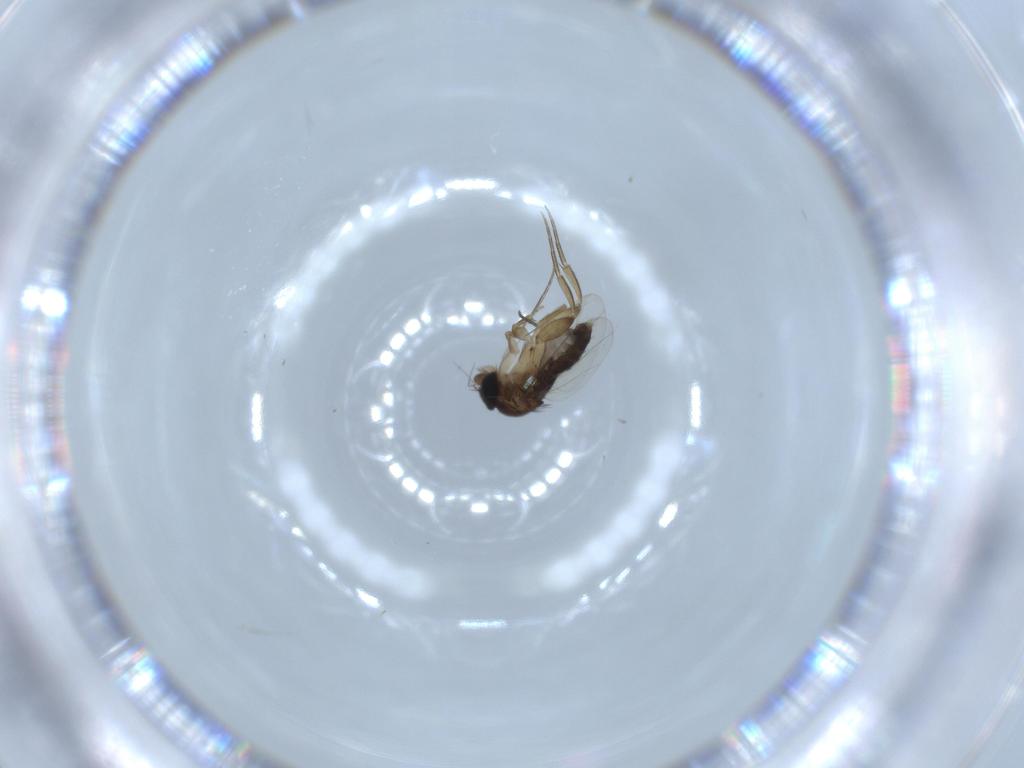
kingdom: Animalia
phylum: Arthropoda
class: Insecta
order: Diptera
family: Phoridae
